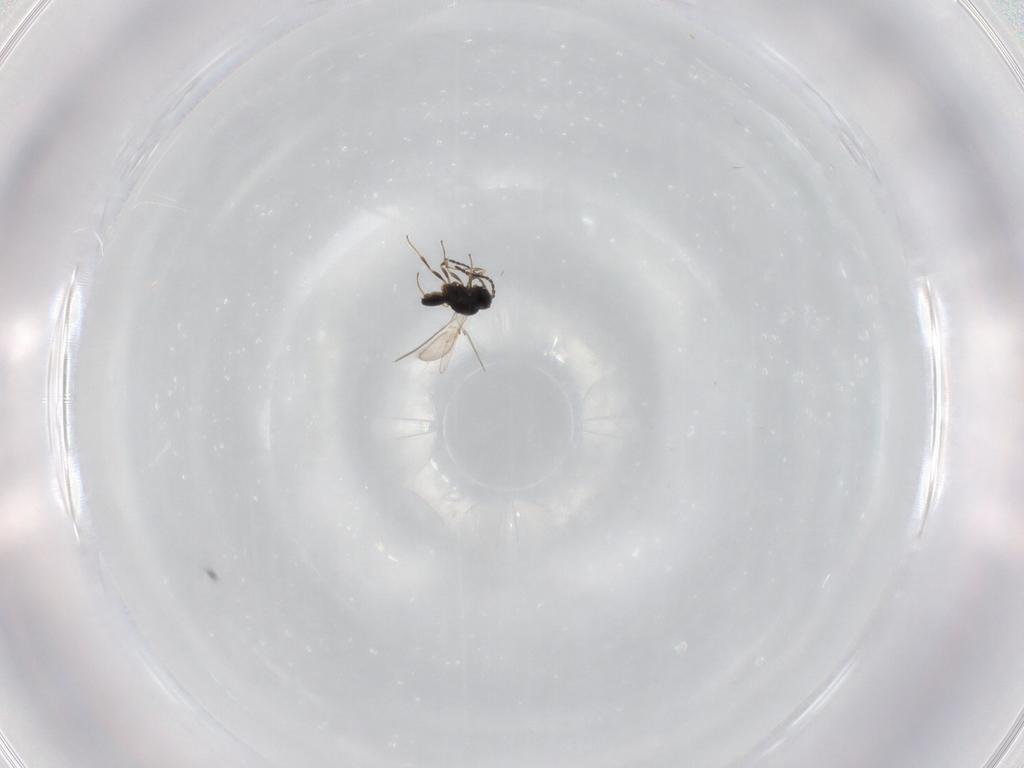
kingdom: Animalia
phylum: Arthropoda
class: Insecta
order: Hymenoptera
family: Scelionidae
